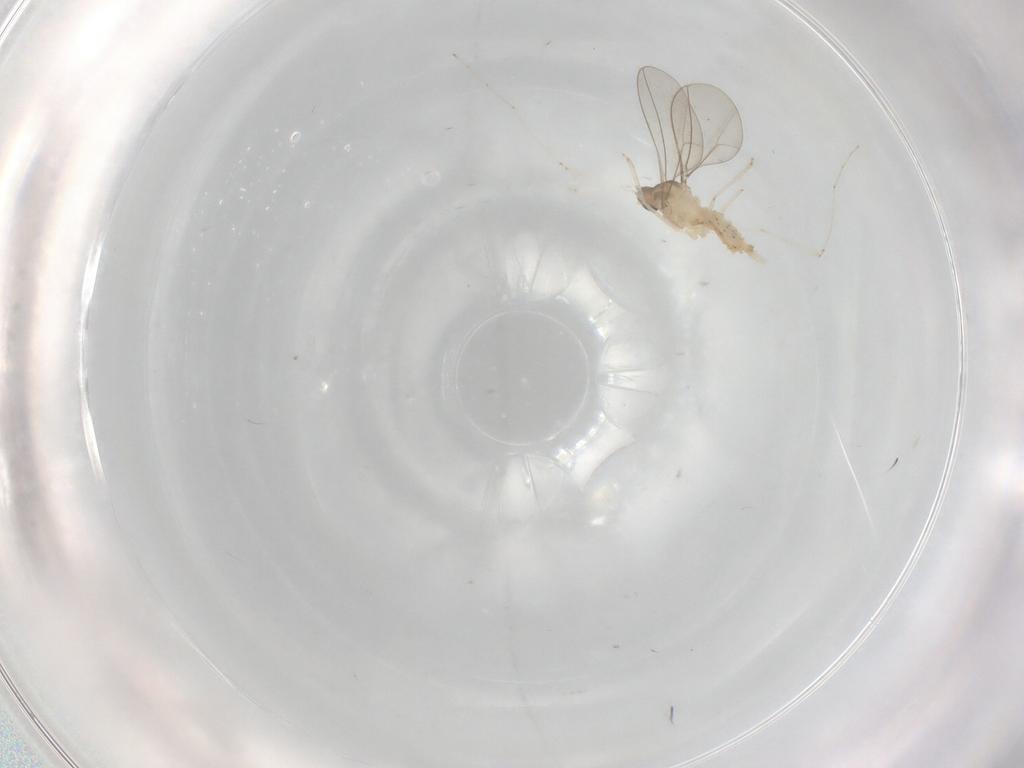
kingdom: Animalia
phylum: Arthropoda
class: Insecta
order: Diptera
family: Cecidomyiidae
